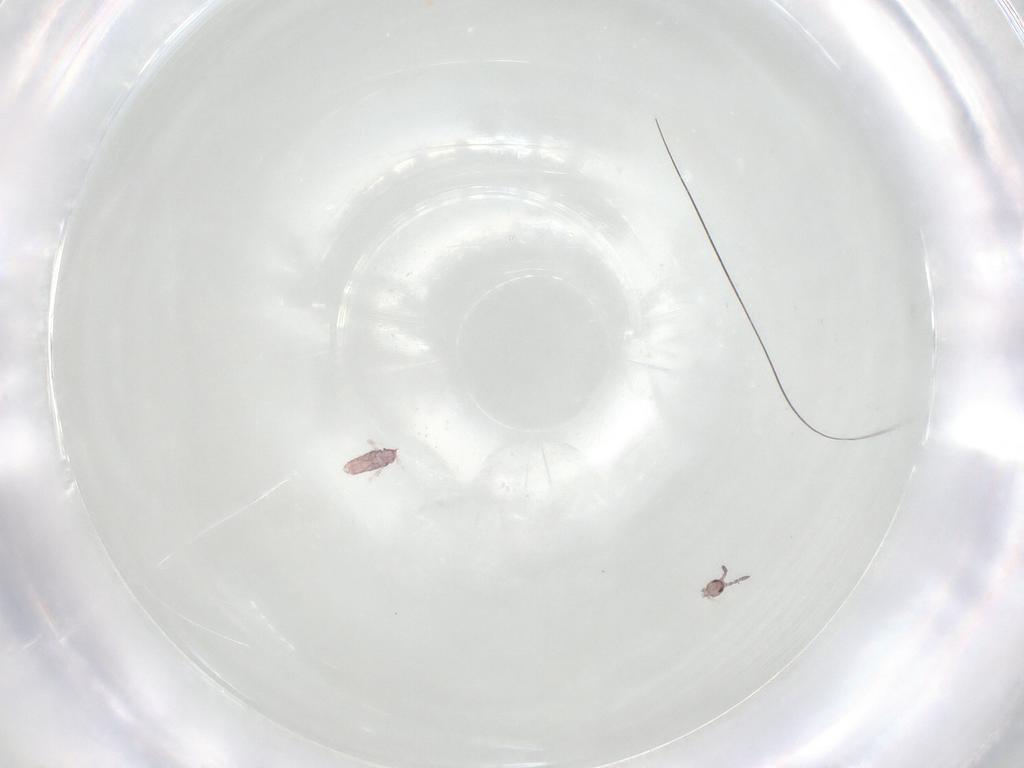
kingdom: Animalia
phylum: Arthropoda
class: Collembola
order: Entomobryomorpha
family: Entomobryidae
